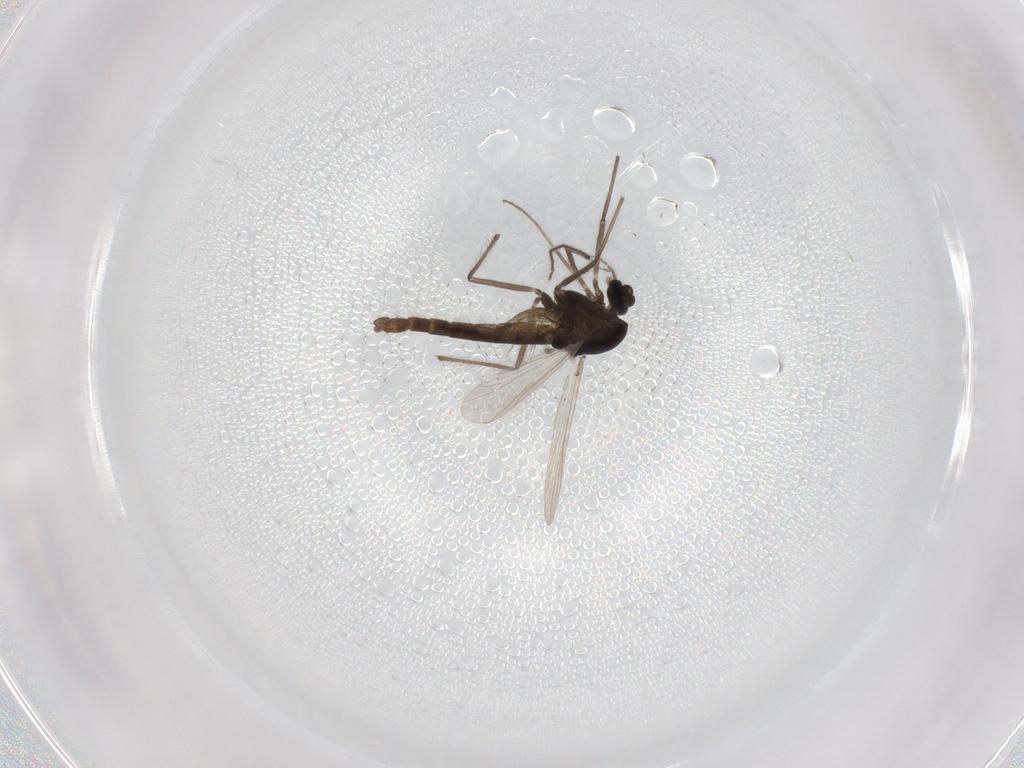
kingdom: Animalia
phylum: Arthropoda
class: Insecta
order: Diptera
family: Chironomidae
